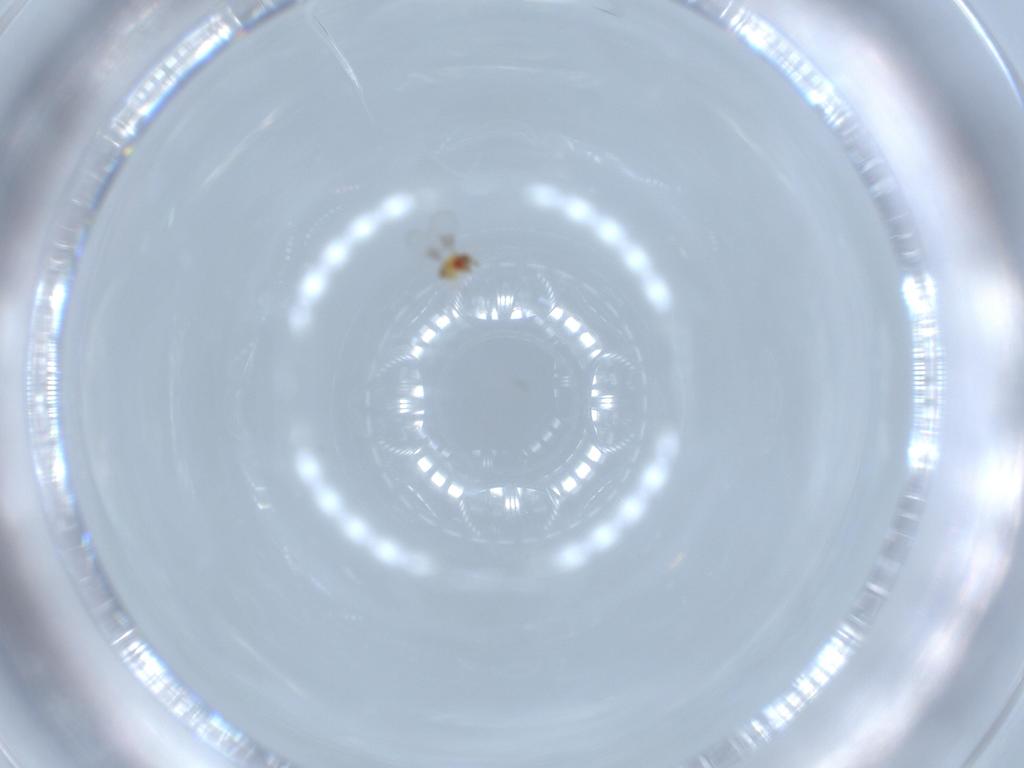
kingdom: Animalia
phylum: Arthropoda
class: Insecta
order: Hymenoptera
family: Trichogrammatidae
